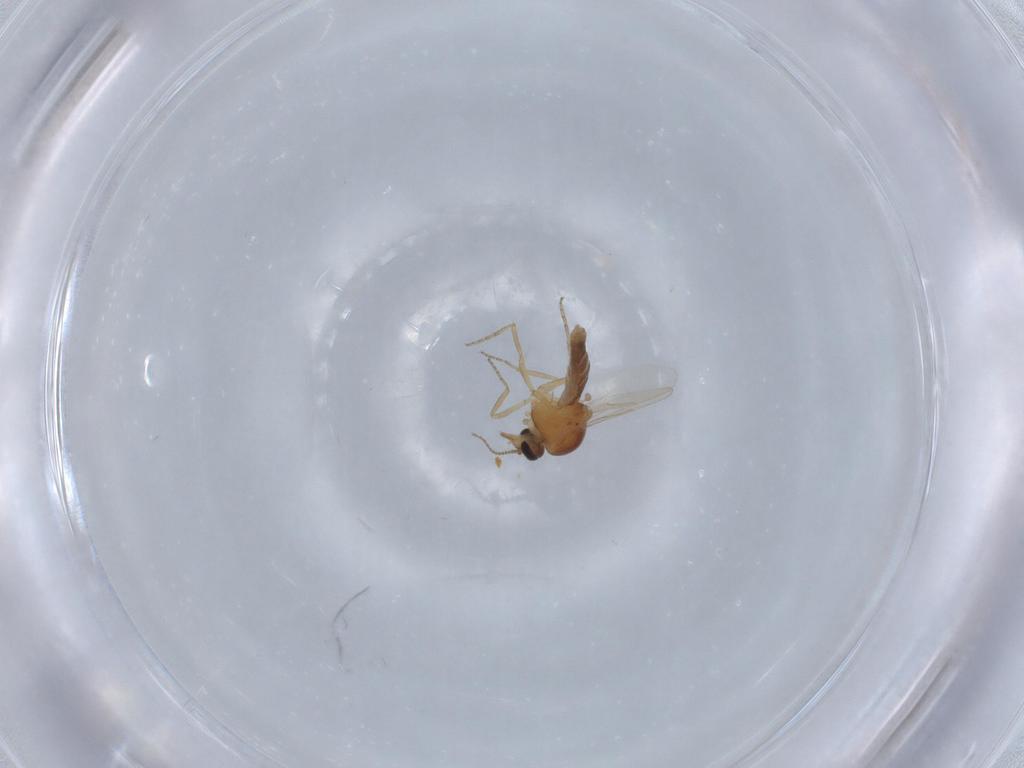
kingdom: Animalia
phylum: Arthropoda
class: Insecta
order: Diptera
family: Ceratopogonidae
